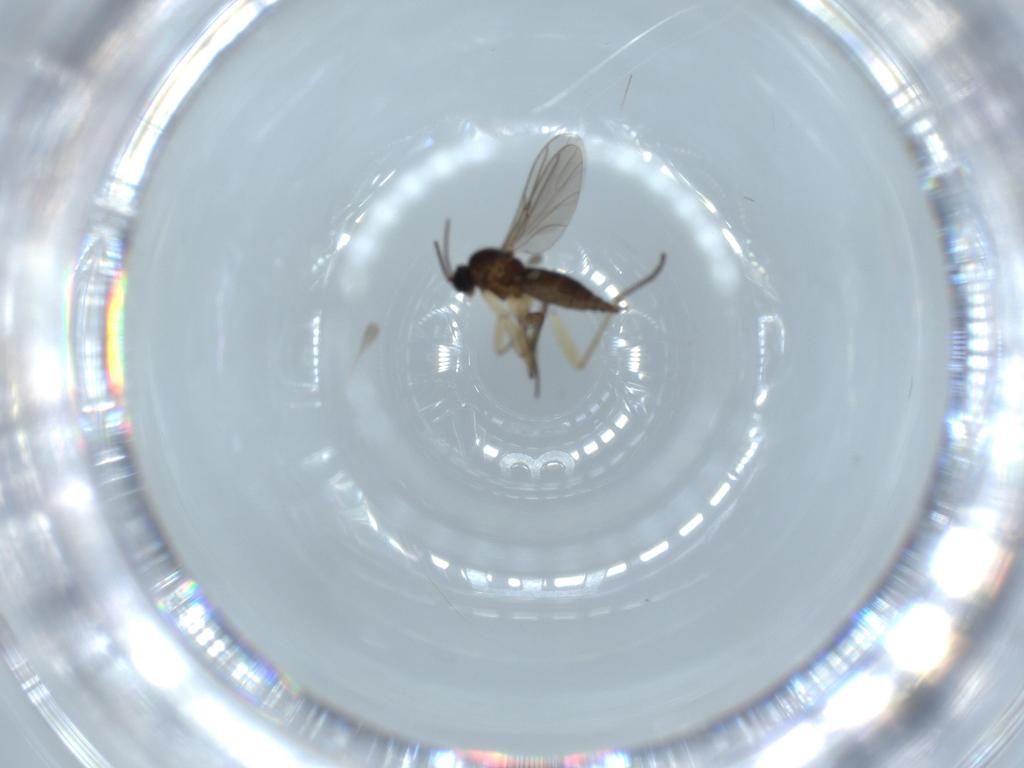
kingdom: Animalia
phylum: Arthropoda
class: Insecta
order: Diptera
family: Sciaridae
